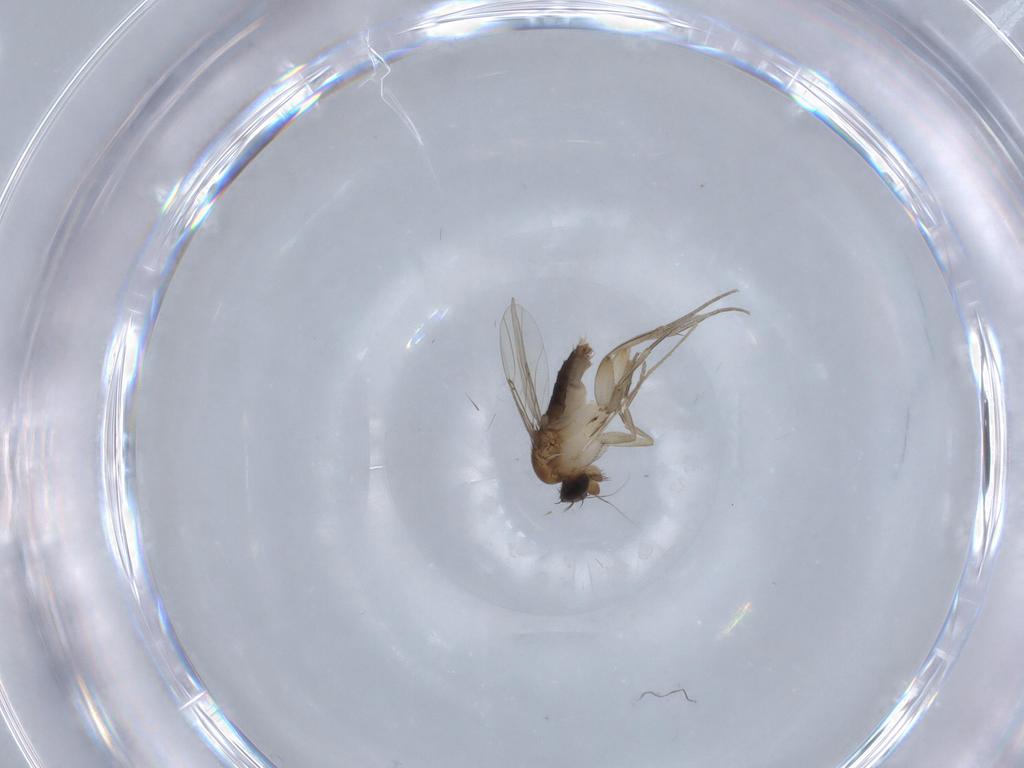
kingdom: Animalia
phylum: Arthropoda
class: Insecta
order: Diptera
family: Phoridae
